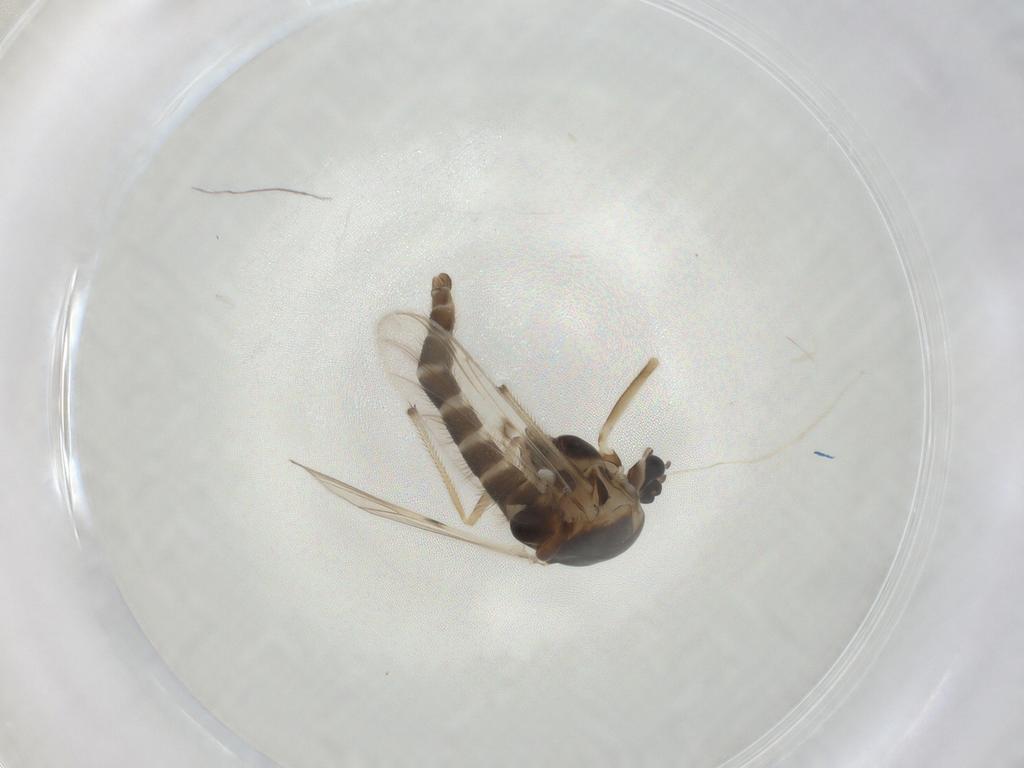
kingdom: Animalia
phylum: Arthropoda
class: Insecta
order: Diptera
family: Chironomidae
